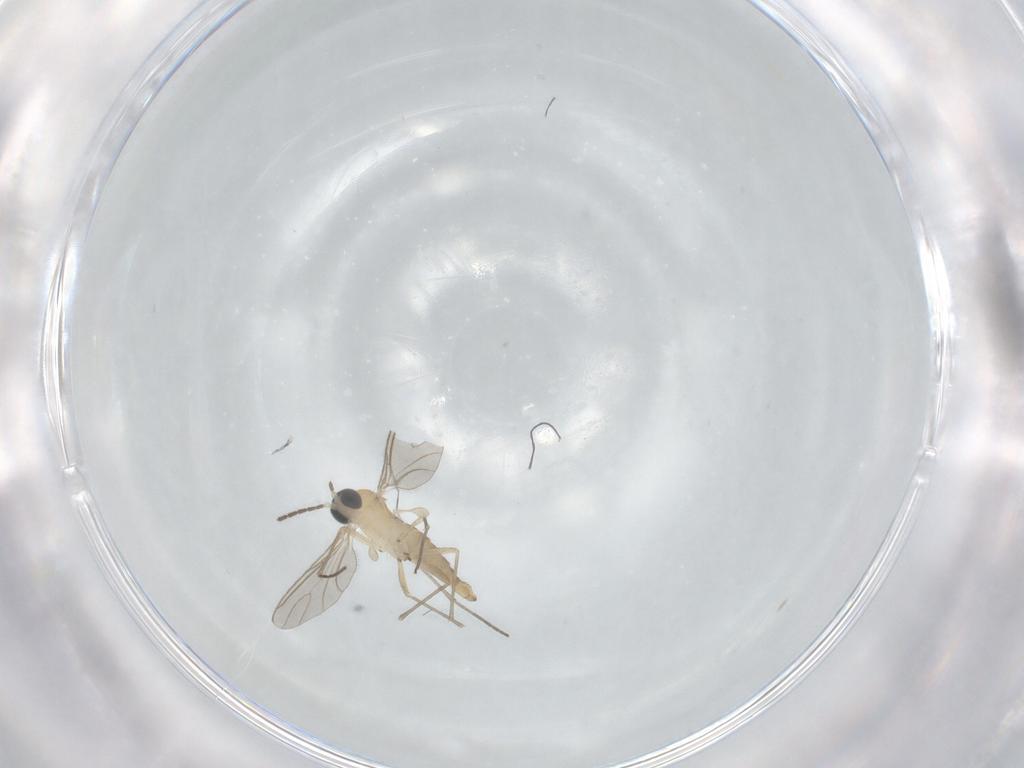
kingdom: Animalia
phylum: Arthropoda
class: Insecta
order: Diptera
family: Sciaridae
